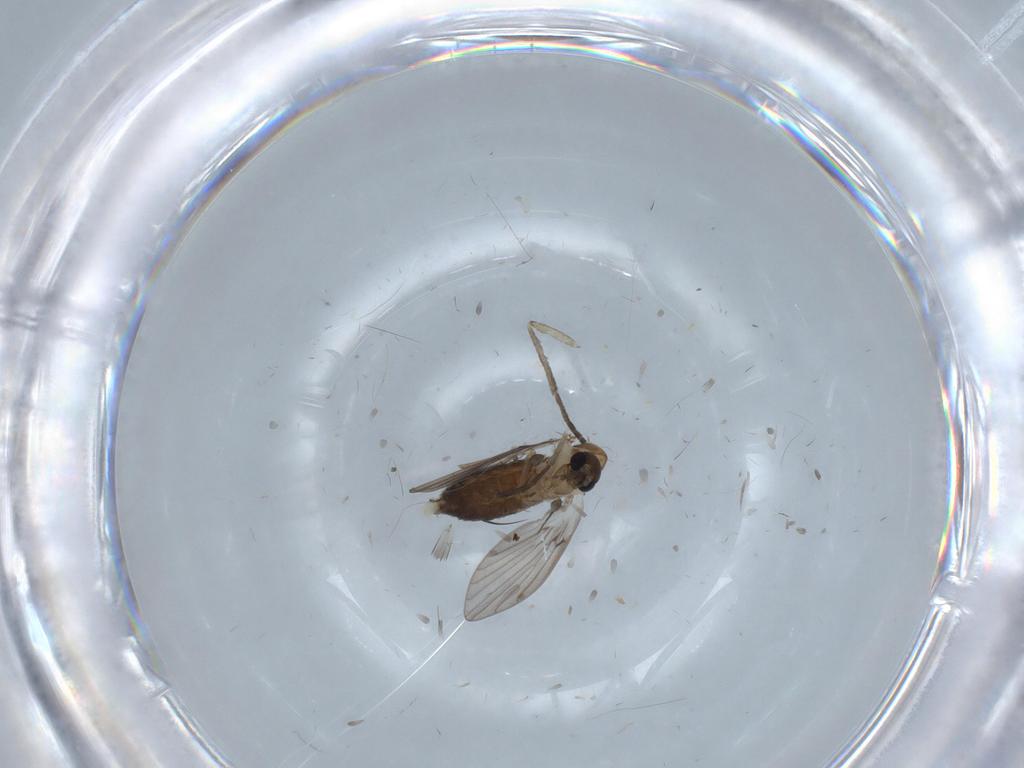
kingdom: Animalia
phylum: Arthropoda
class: Insecta
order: Diptera
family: Psychodidae
